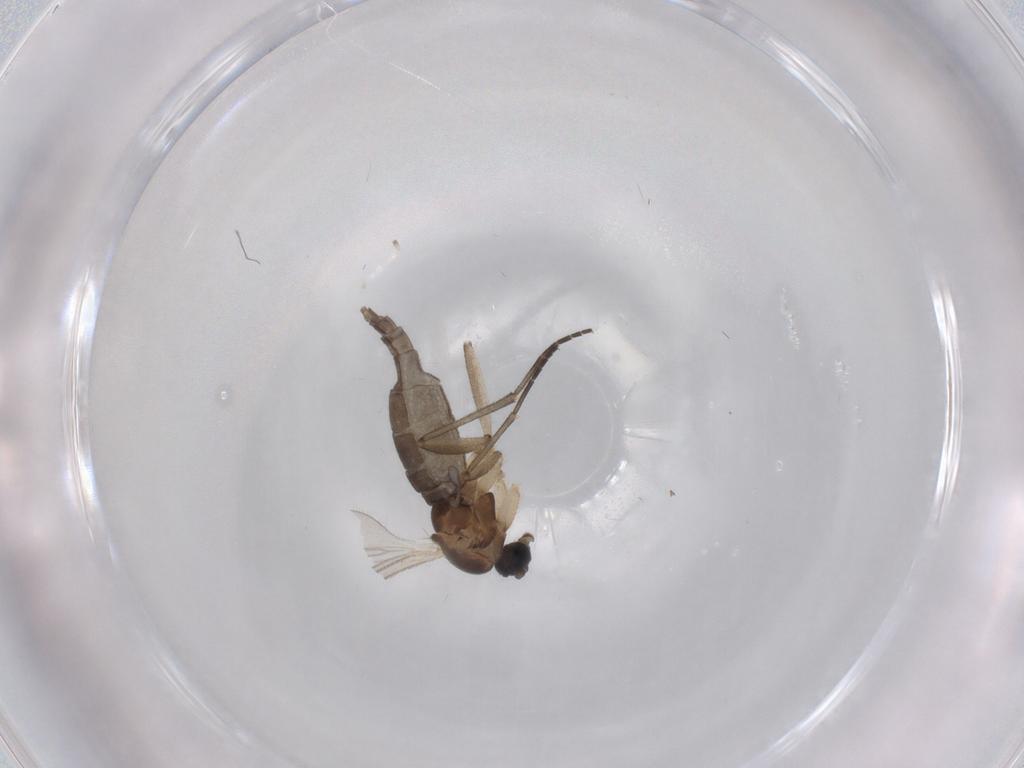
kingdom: Animalia
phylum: Arthropoda
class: Insecta
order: Diptera
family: Sciaridae
